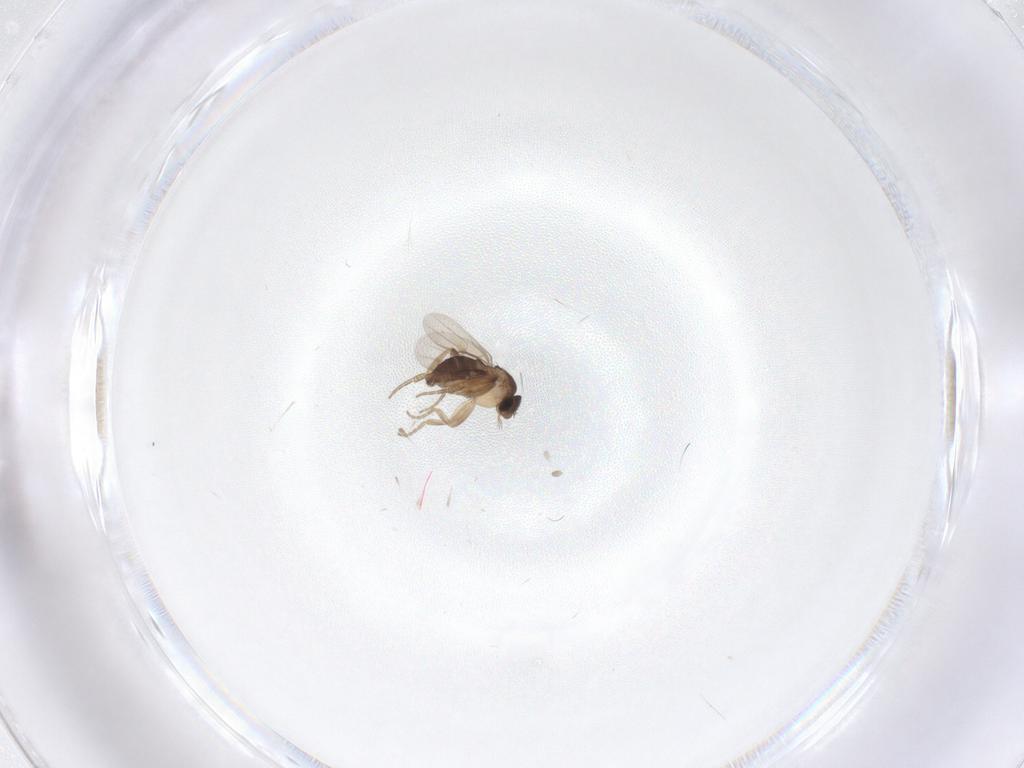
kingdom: Animalia
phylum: Arthropoda
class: Insecta
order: Diptera
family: Phoridae
